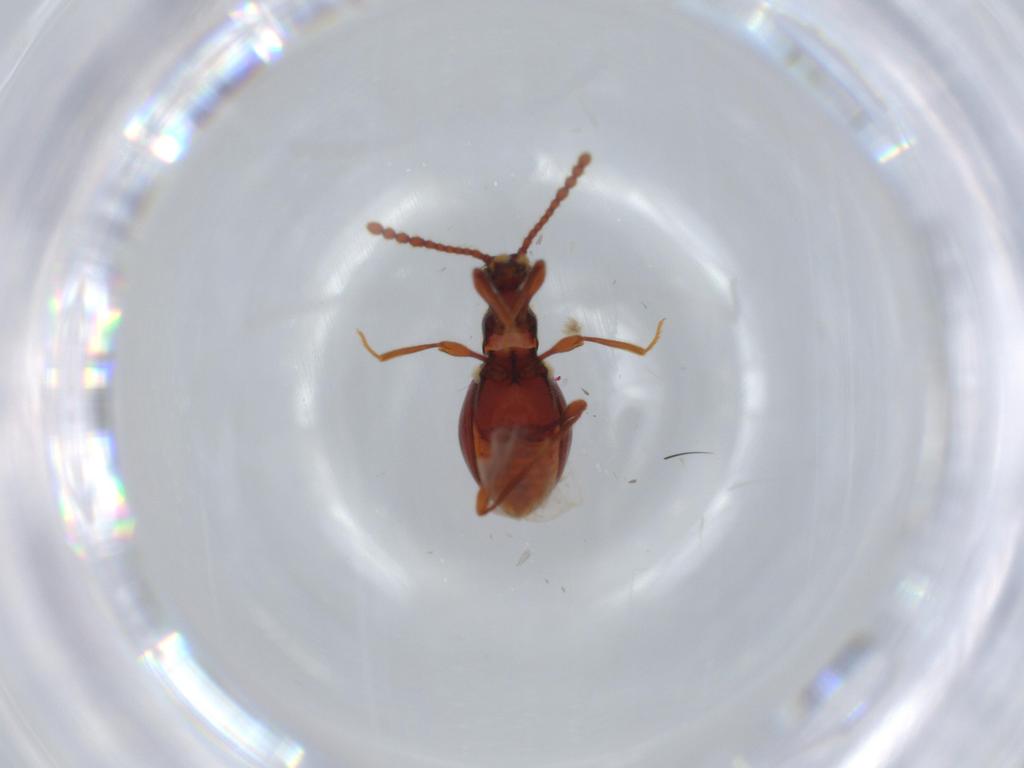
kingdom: Animalia
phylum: Arthropoda
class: Insecta
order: Coleoptera
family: Staphylinidae
